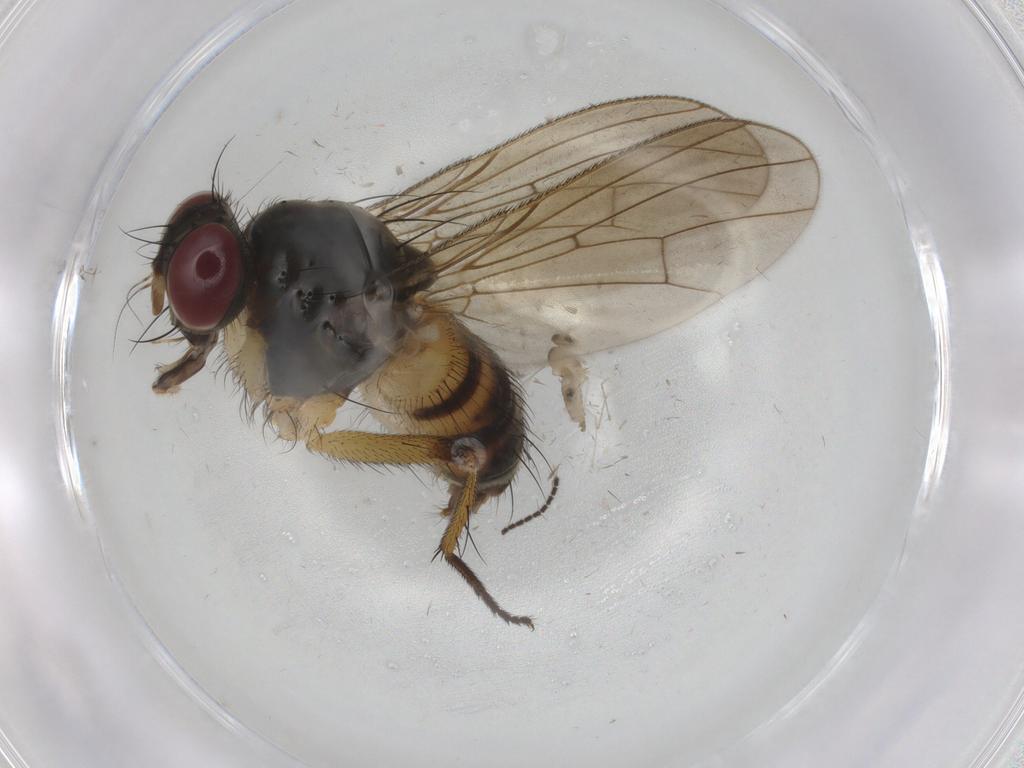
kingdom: Animalia
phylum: Arthropoda
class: Insecta
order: Diptera
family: Cecidomyiidae
